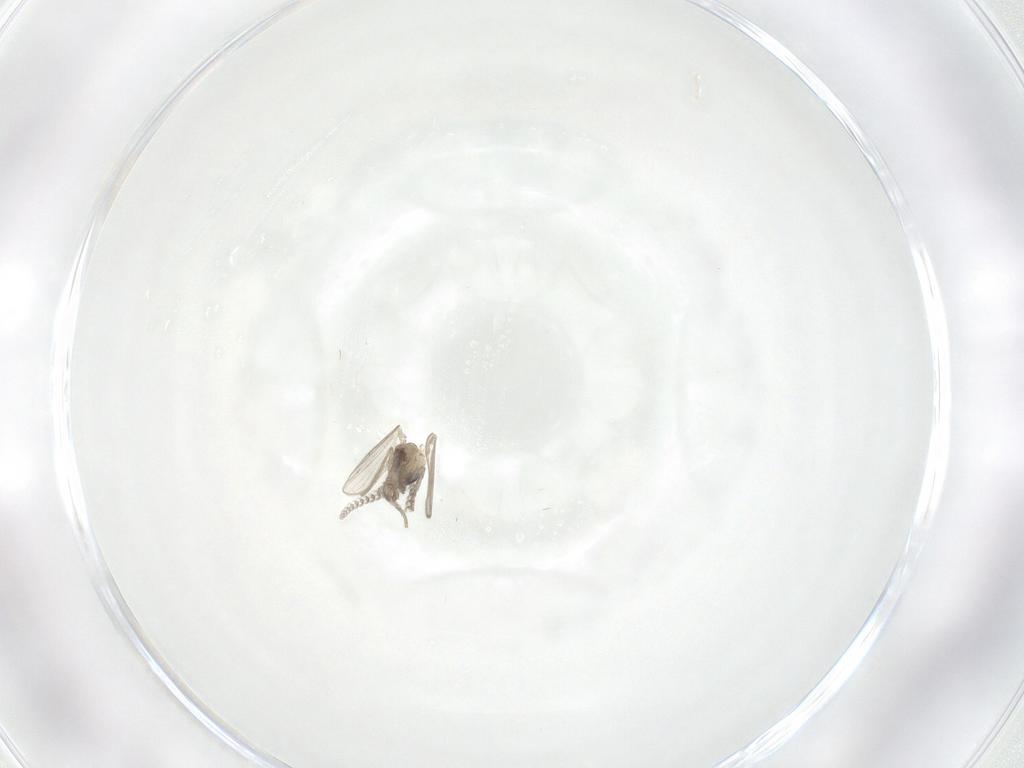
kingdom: Animalia
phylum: Arthropoda
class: Insecta
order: Diptera
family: Psychodidae
